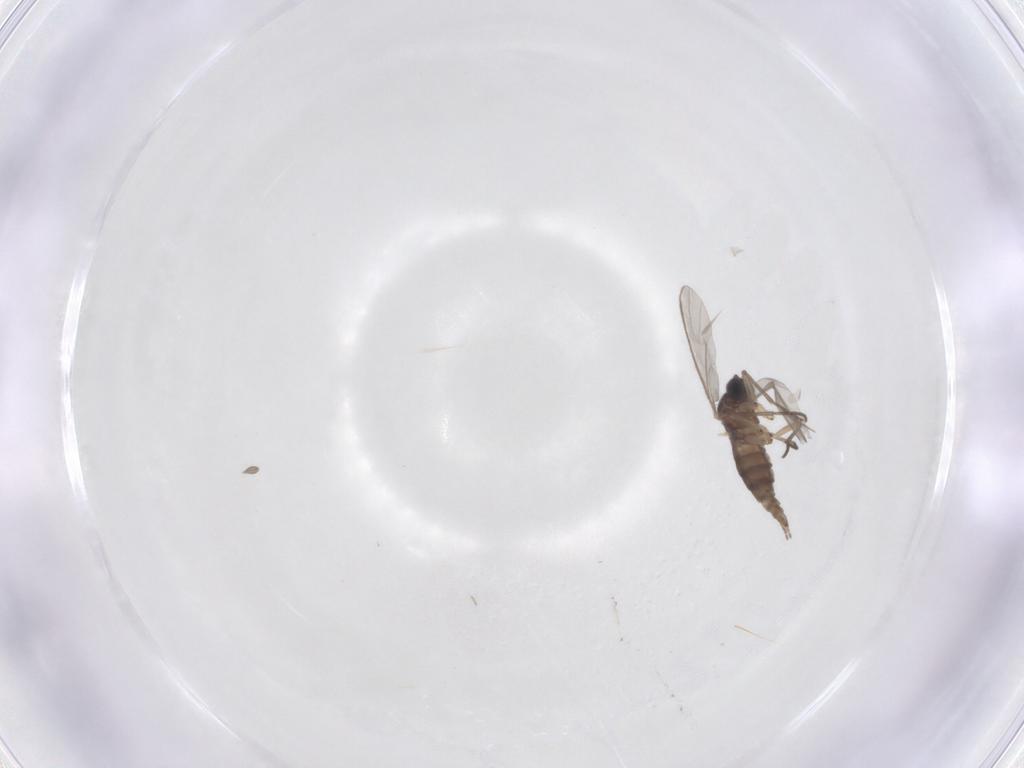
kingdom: Animalia
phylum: Arthropoda
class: Insecta
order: Diptera
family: Sciaridae
